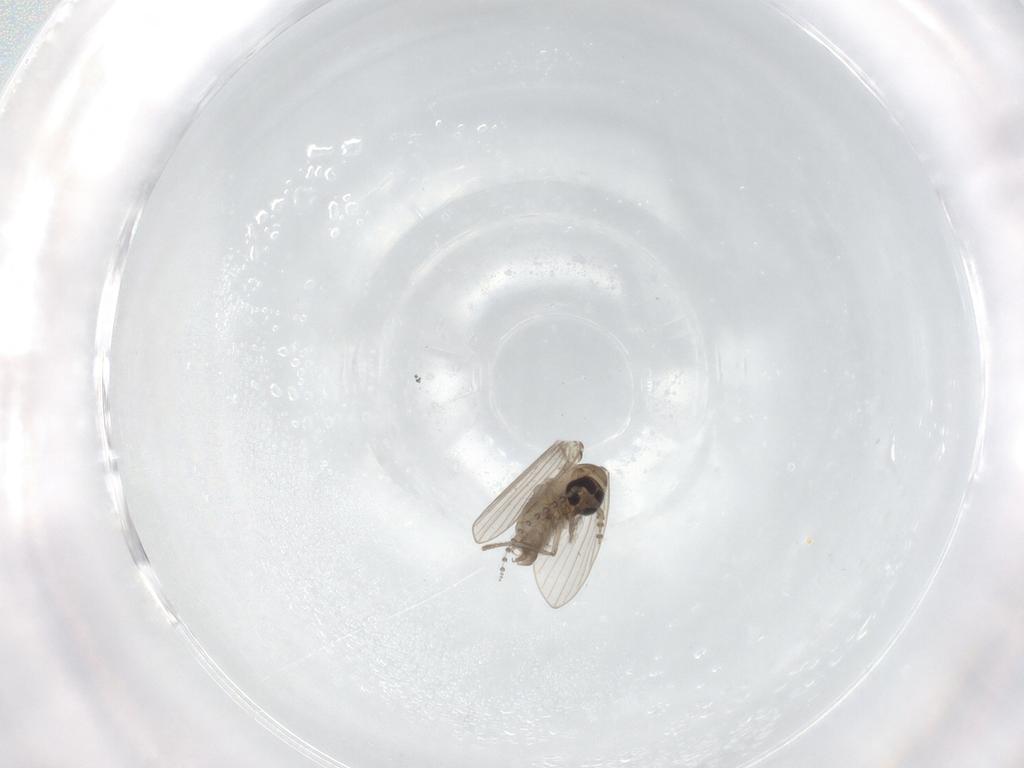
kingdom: Animalia
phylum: Arthropoda
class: Insecta
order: Diptera
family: Psychodidae
